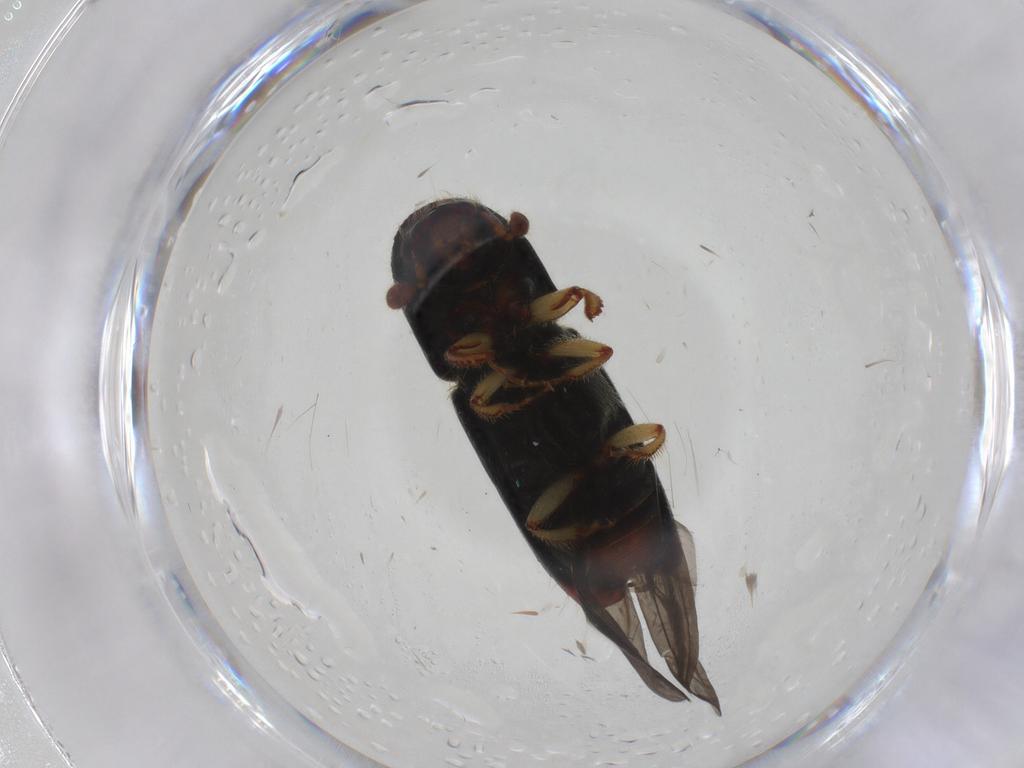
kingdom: Animalia
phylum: Arthropoda
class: Insecta
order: Coleoptera
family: Curculionidae
